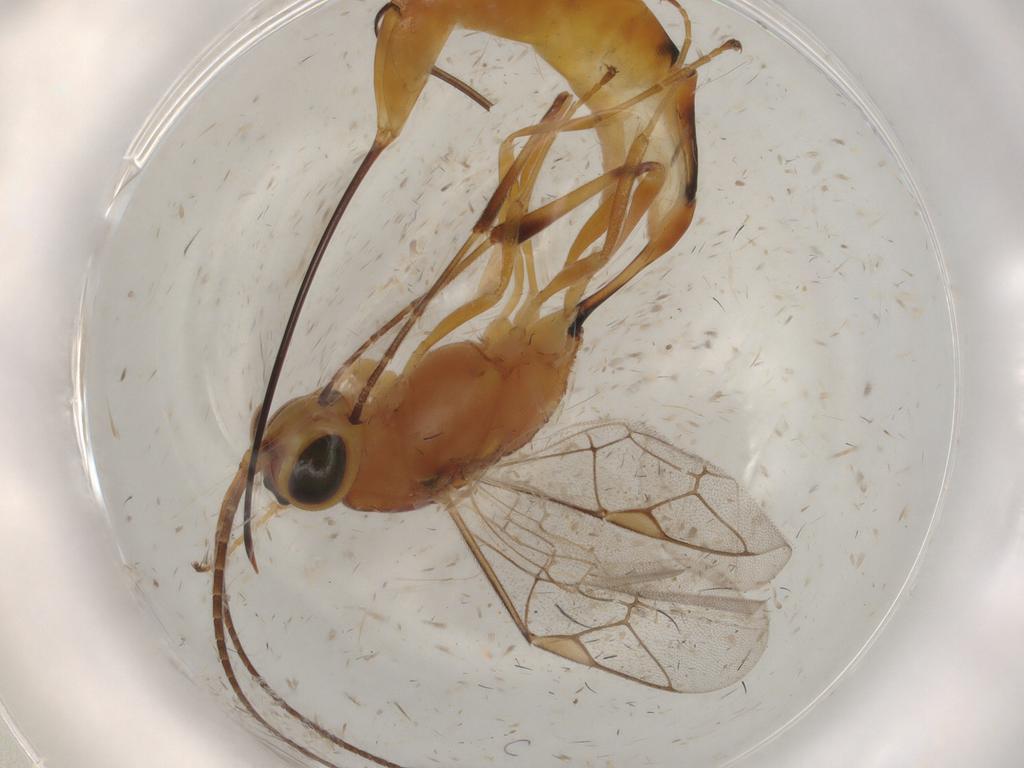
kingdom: Animalia
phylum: Arthropoda
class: Insecta
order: Hymenoptera
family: Ichneumonidae
